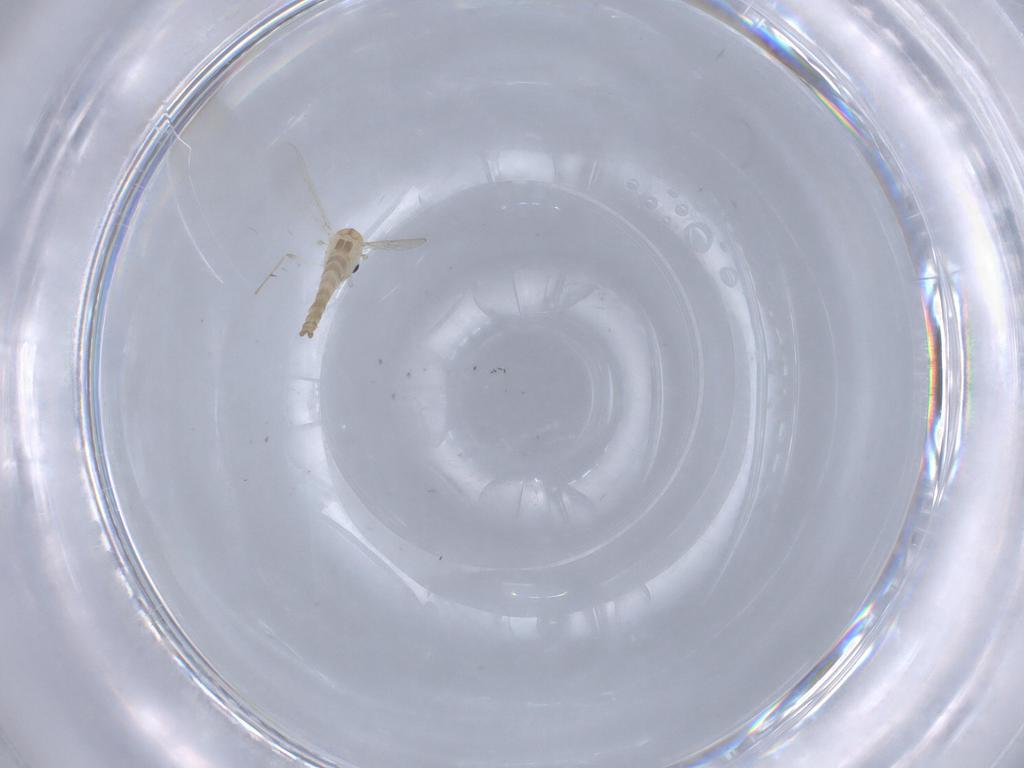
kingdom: Animalia
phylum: Arthropoda
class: Insecta
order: Diptera
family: Chironomidae
